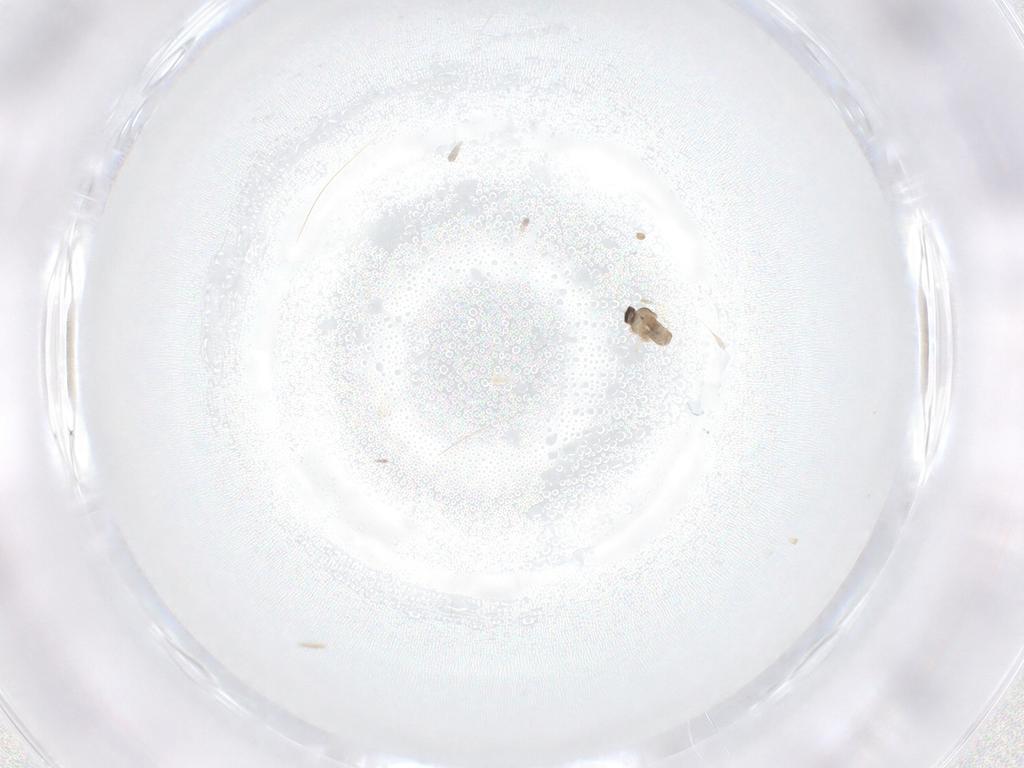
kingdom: Animalia
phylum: Arthropoda
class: Insecta
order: Diptera
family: Cecidomyiidae
